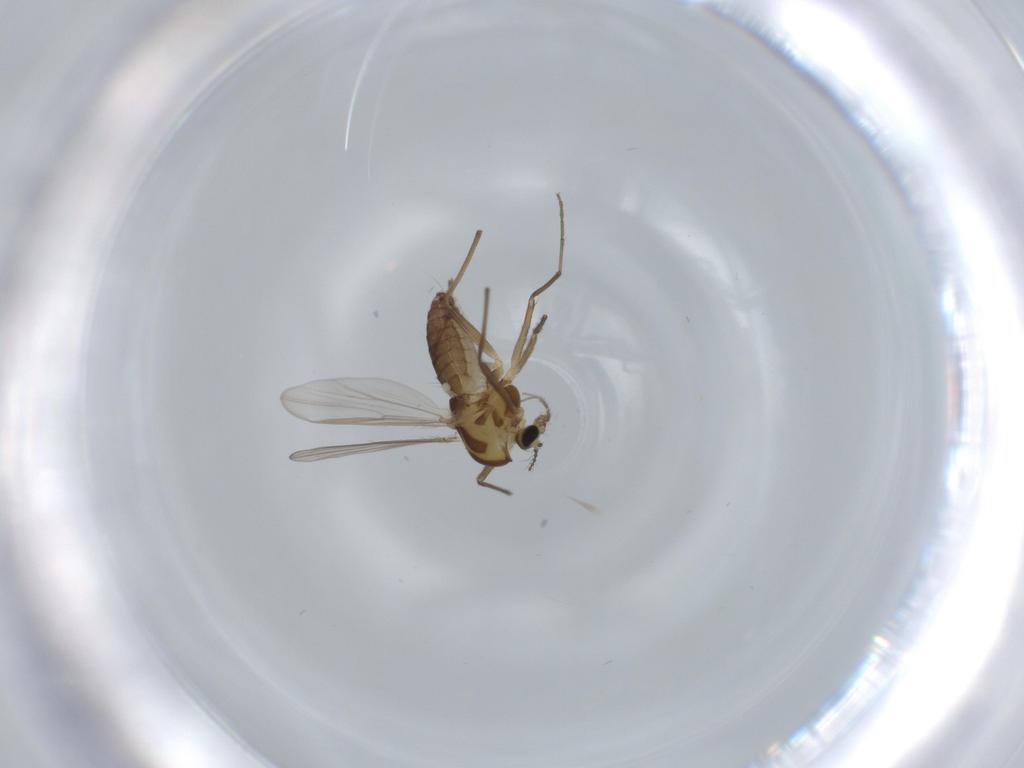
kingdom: Animalia
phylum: Arthropoda
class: Insecta
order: Diptera
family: Chironomidae
